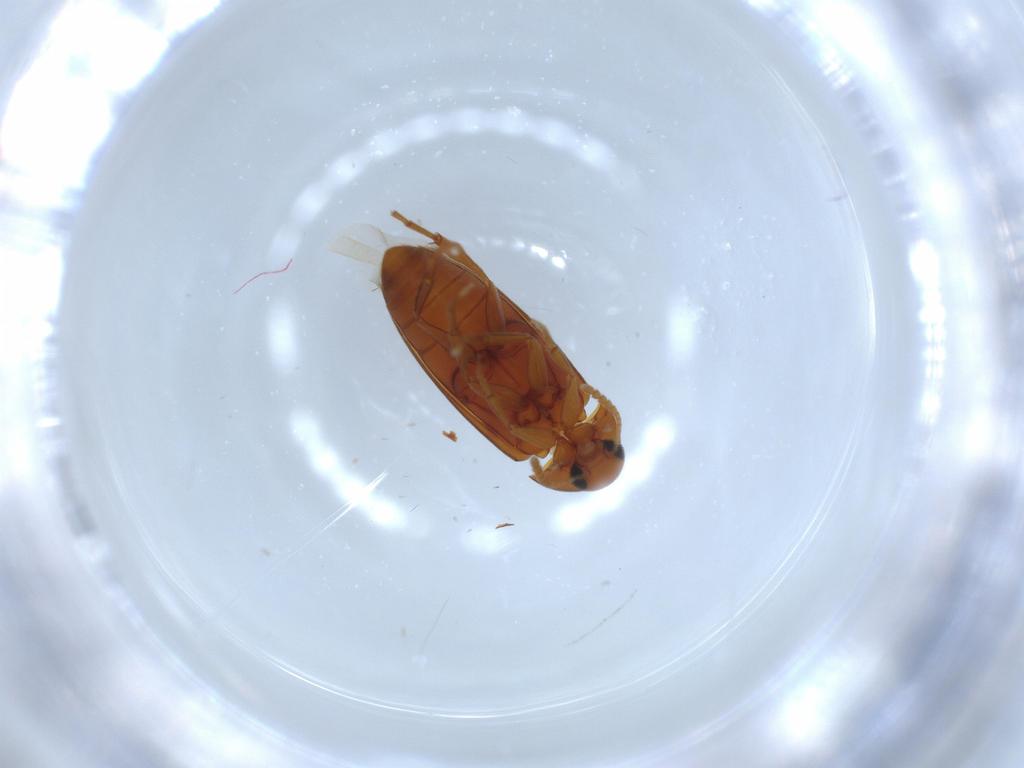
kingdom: Animalia
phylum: Arthropoda
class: Insecta
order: Coleoptera
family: Scraptiidae
